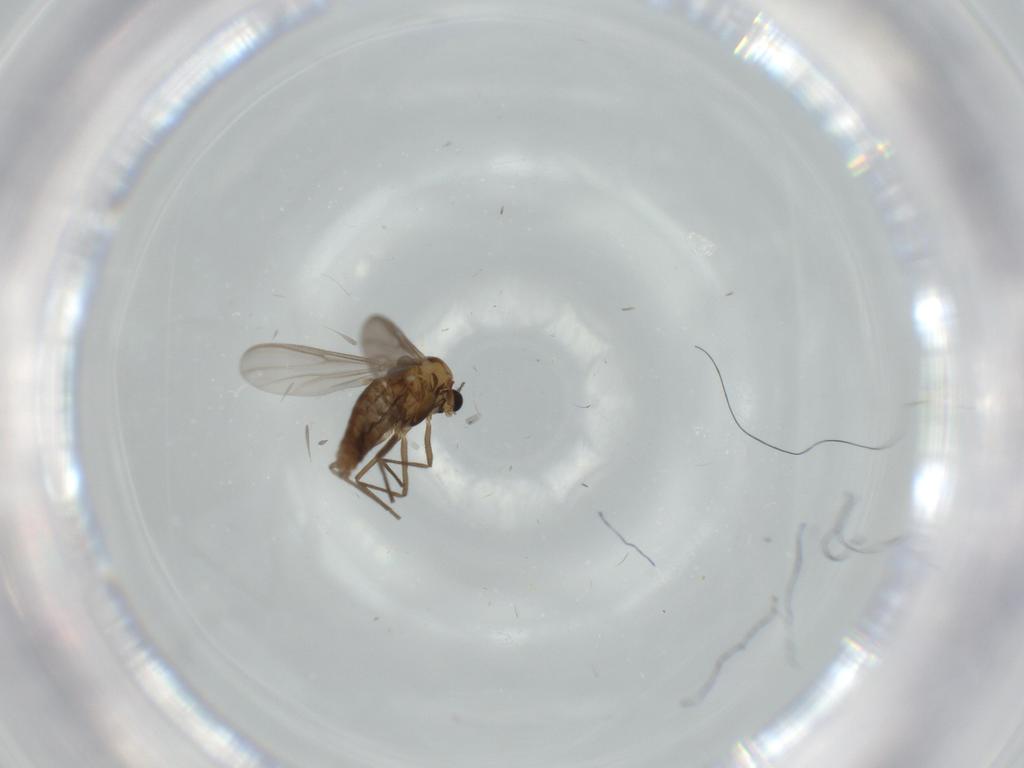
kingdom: Animalia
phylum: Arthropoda
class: Insecta
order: Diptera
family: Chironomidae
